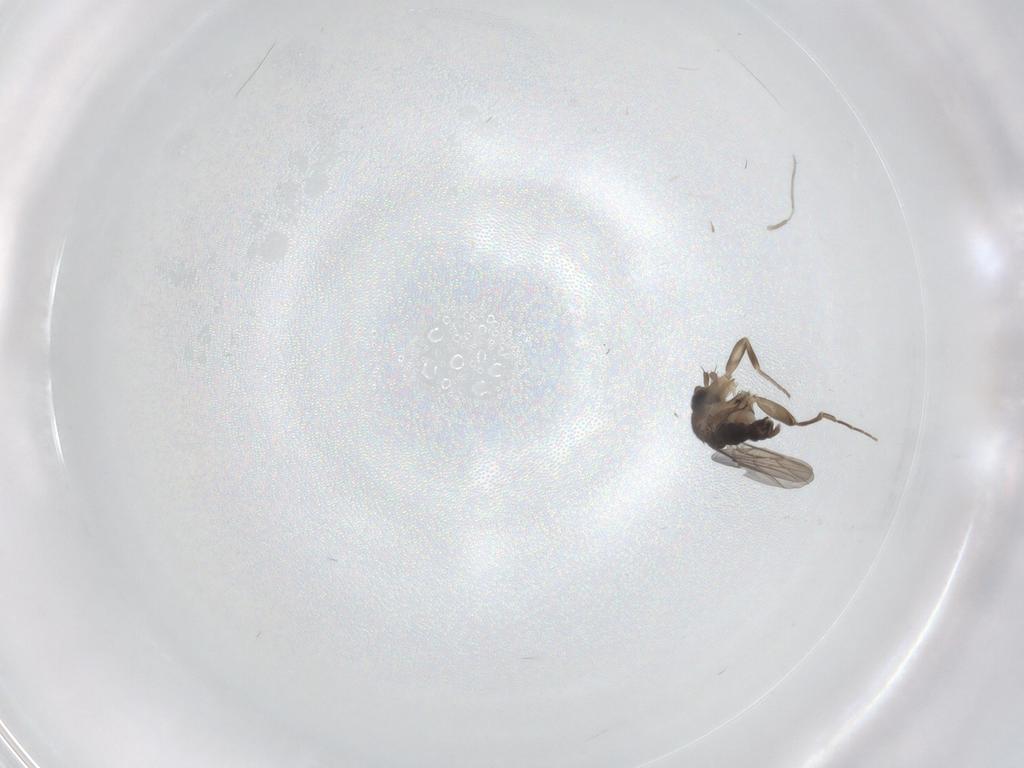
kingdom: Animalia
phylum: Arthropoda
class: Insecta
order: Diptera
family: Phoridae
